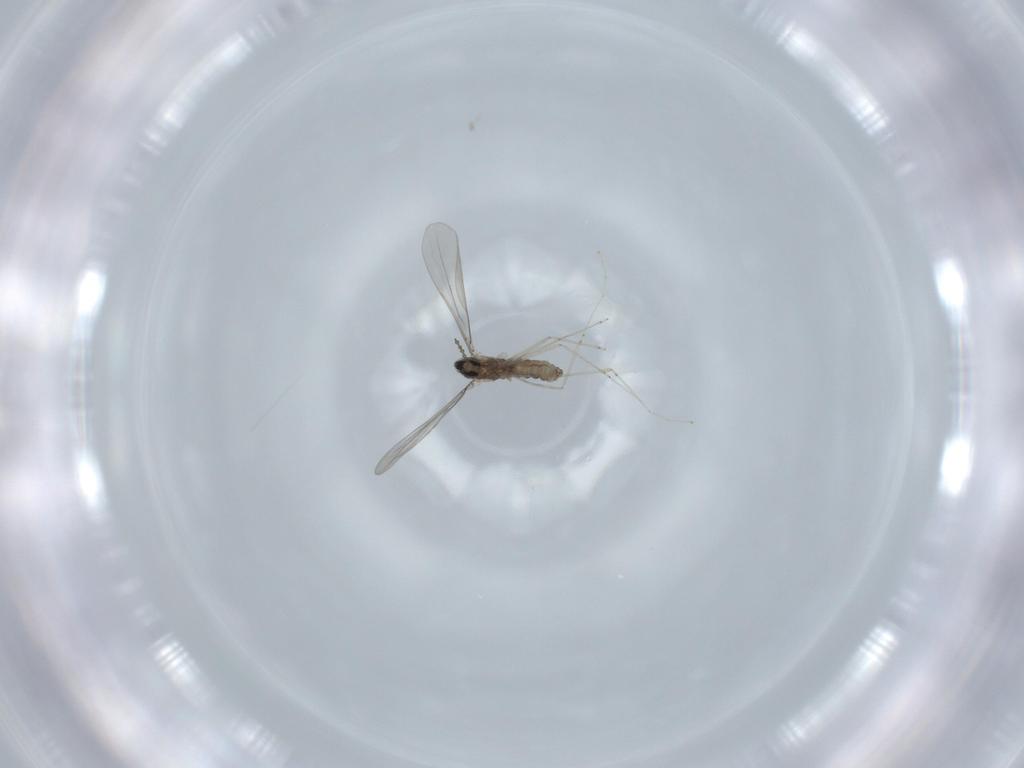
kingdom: Animalia
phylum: Arthropoda
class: Insecta
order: Diptera
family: Cecidomyiidae
